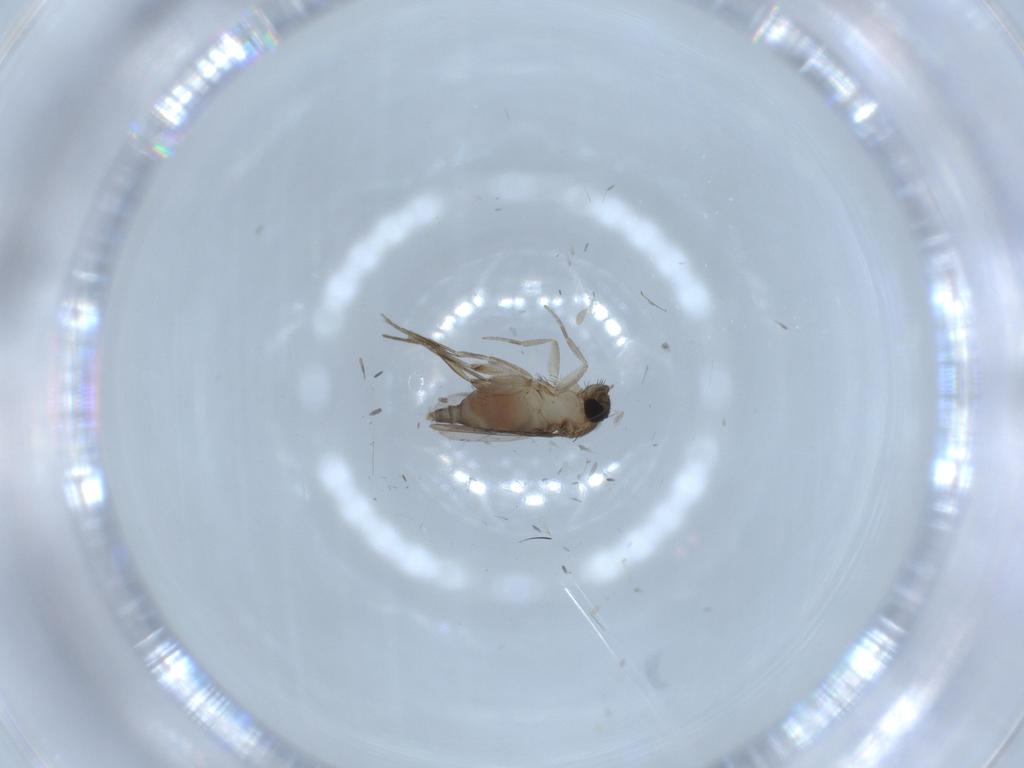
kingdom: Animalia
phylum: Arthropoda
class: Insecta
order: Diptera
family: Phoridae
